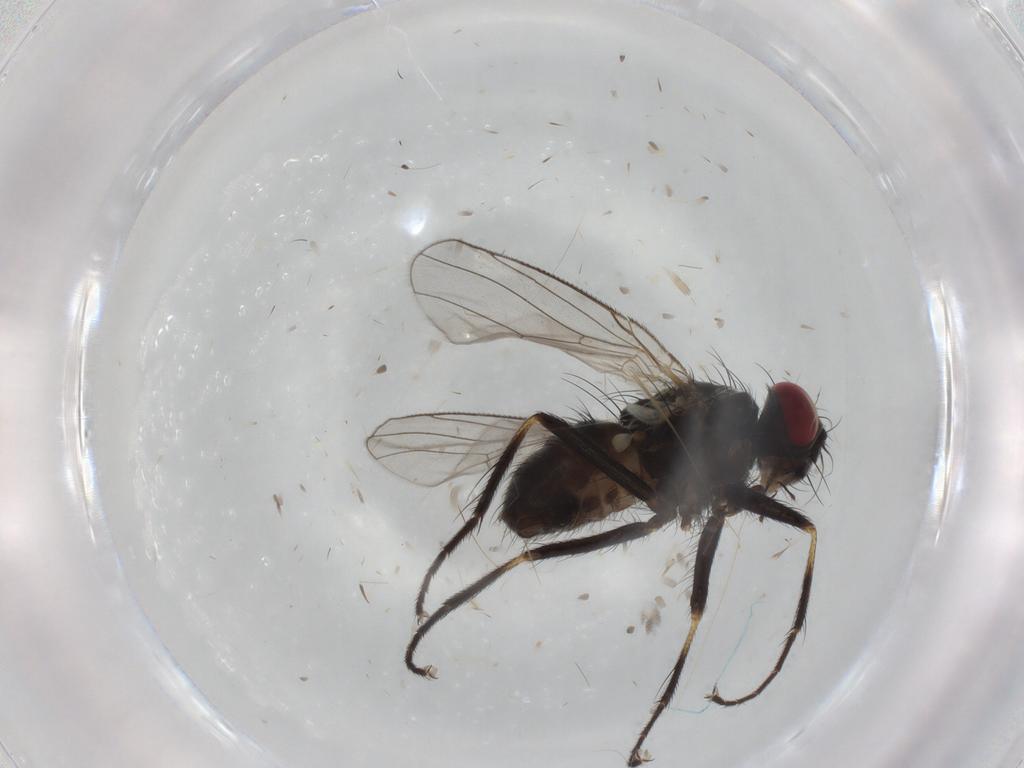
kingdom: Animalia
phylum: Arthropoda
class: Insecta
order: Diptera
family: Muscidae
